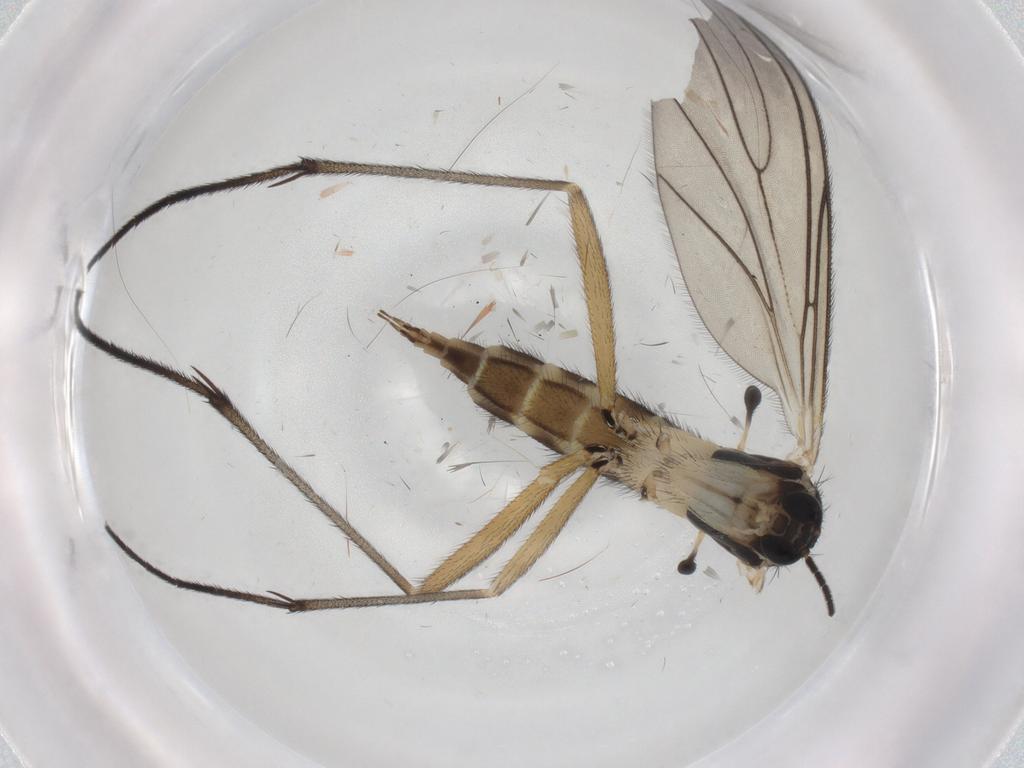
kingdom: Animalia
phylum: Arthropoda
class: Insecta
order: Diptera
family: Sciaridae
